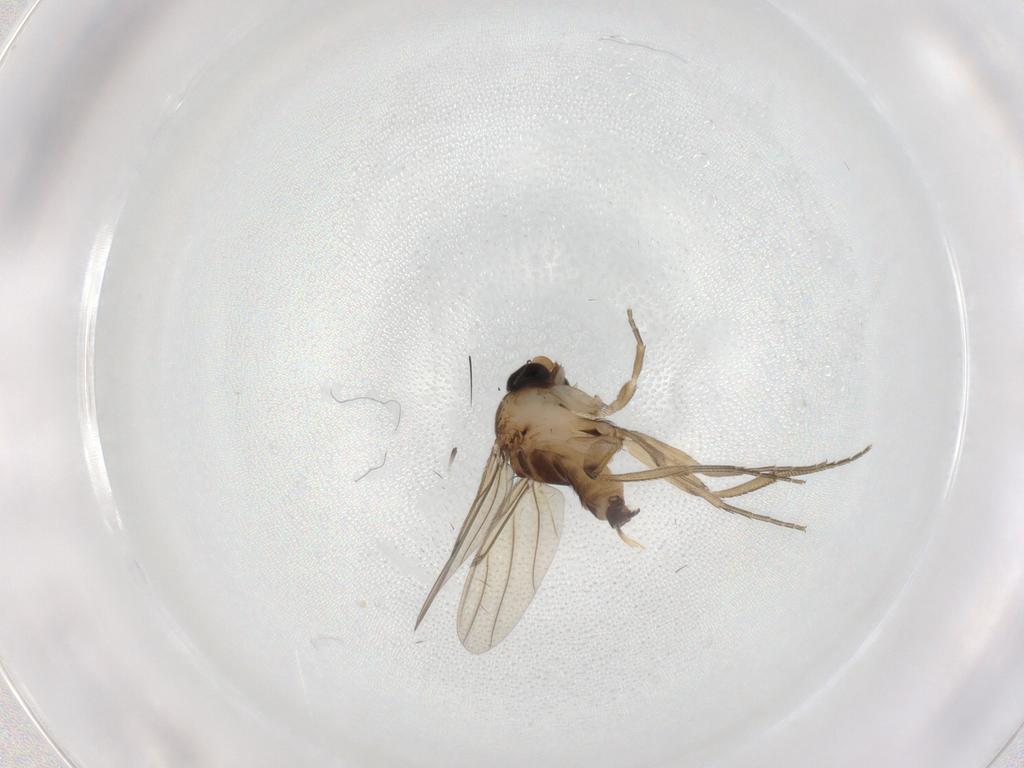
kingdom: Animalia
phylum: Arthropoda
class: Insecta
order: Diptera
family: Phoridae
